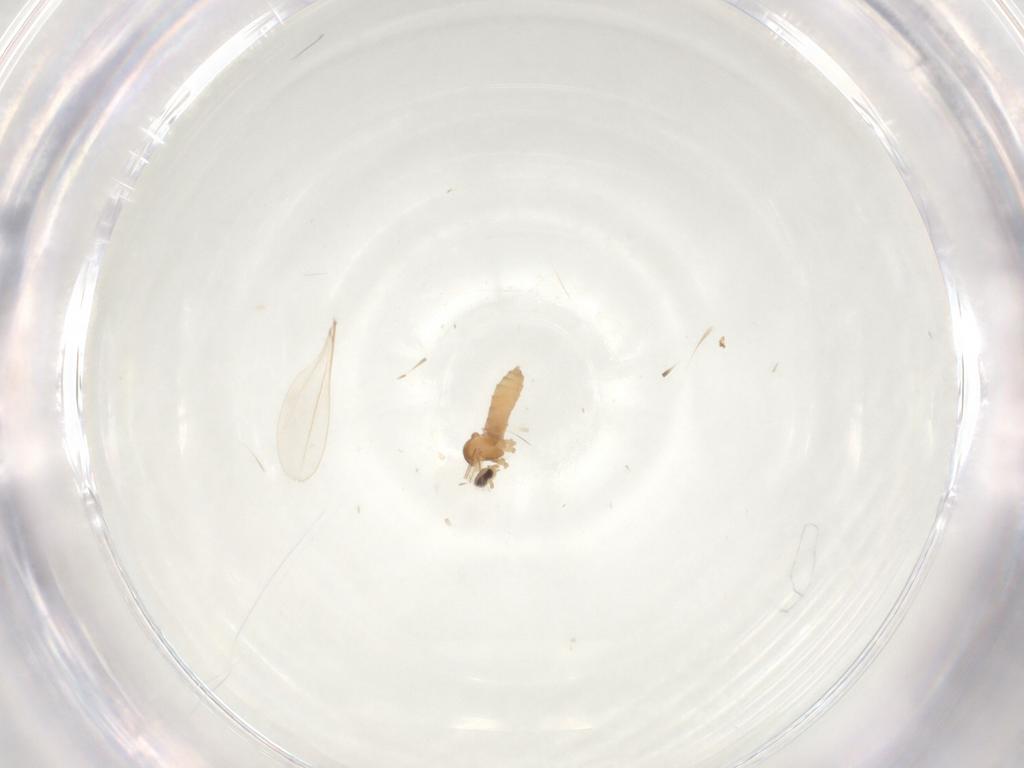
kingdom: Animalia
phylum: Arthropoda
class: Insecta
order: Diptera
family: Cecidomyiidae
